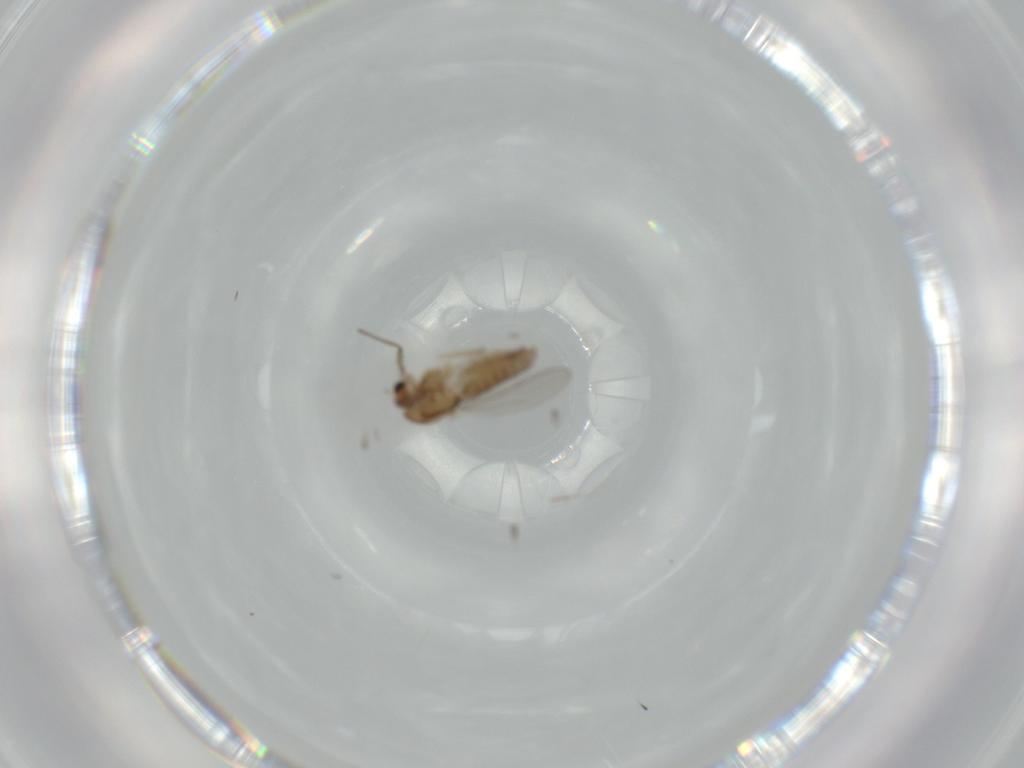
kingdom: Animalia
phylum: Arthropoda
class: Insecta
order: Diptera
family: Chironomidae
